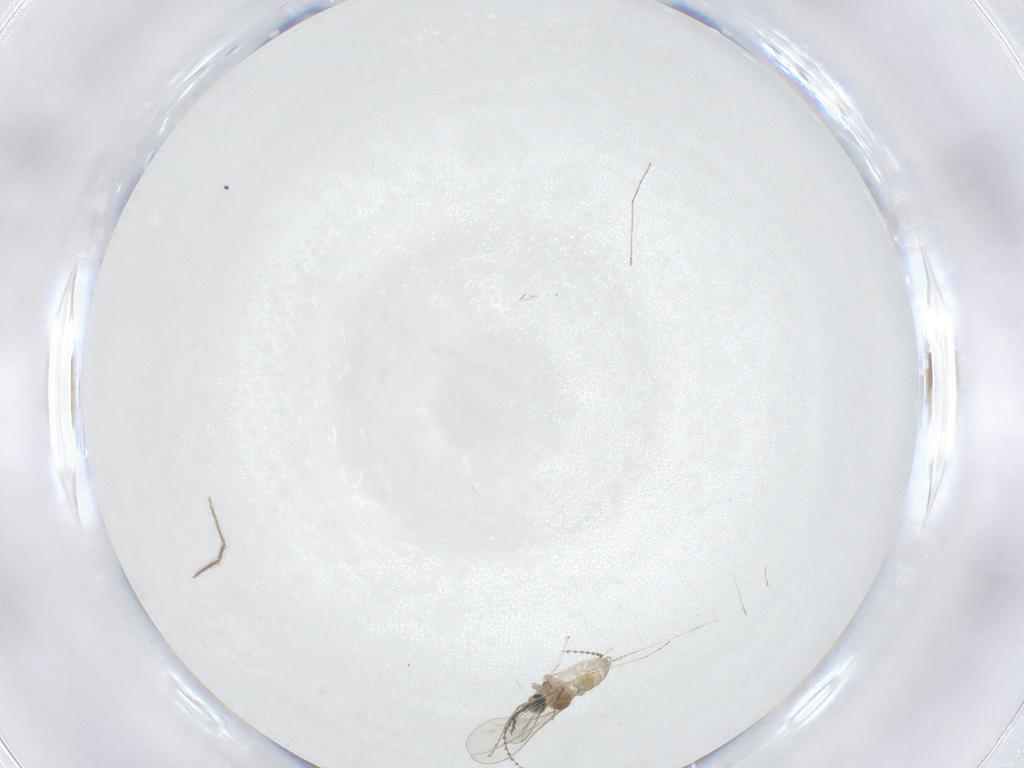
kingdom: Animalia
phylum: Arthropoda
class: Insecta
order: Diptera
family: Cecidomyiidae
